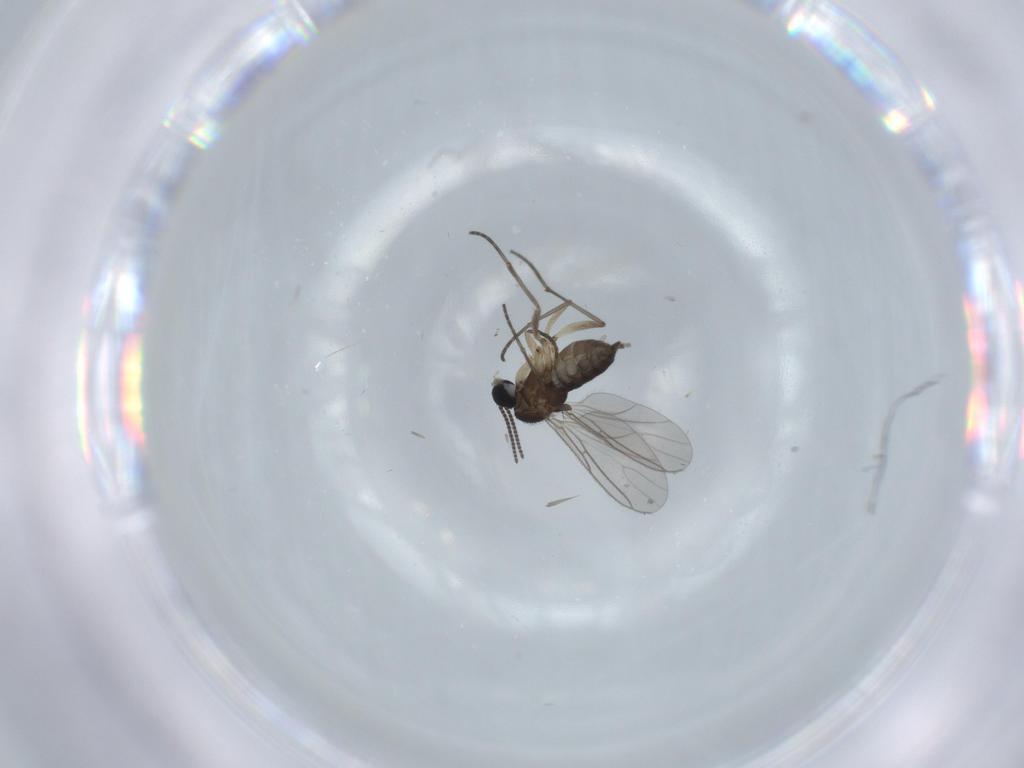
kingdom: Animalia
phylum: Arthropoda
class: Insecta
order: Diptera
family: Sciaridae
